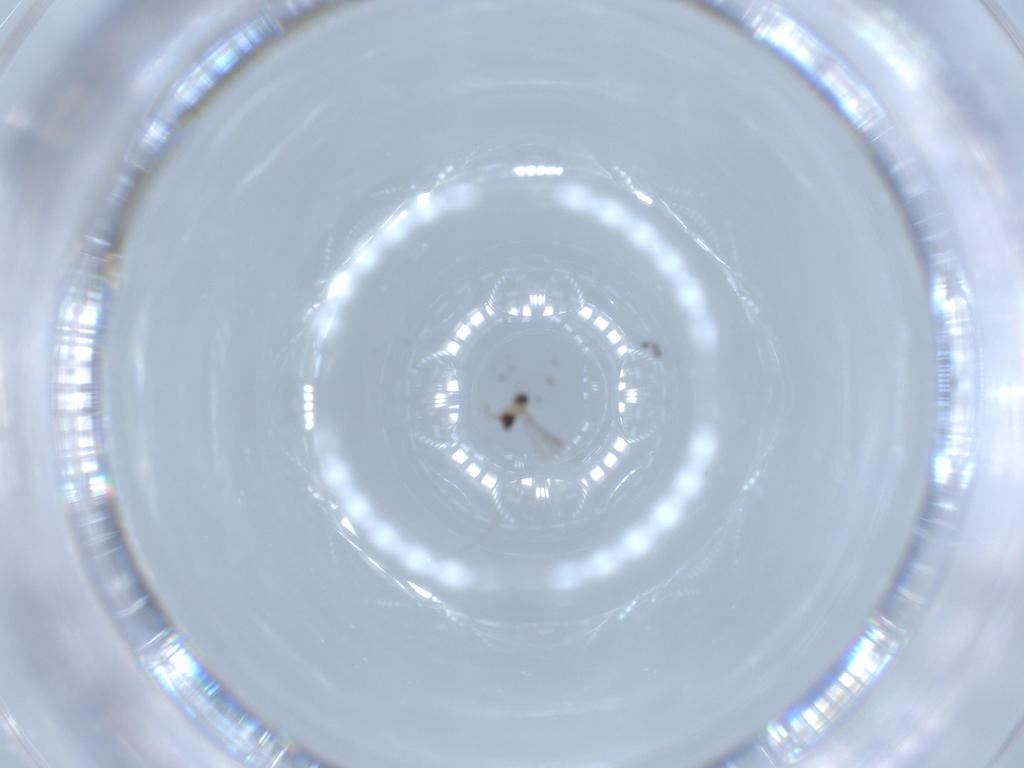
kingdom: Animalia
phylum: Arthropoda
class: Insecta
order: Hymenoptera
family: Mymaridae
